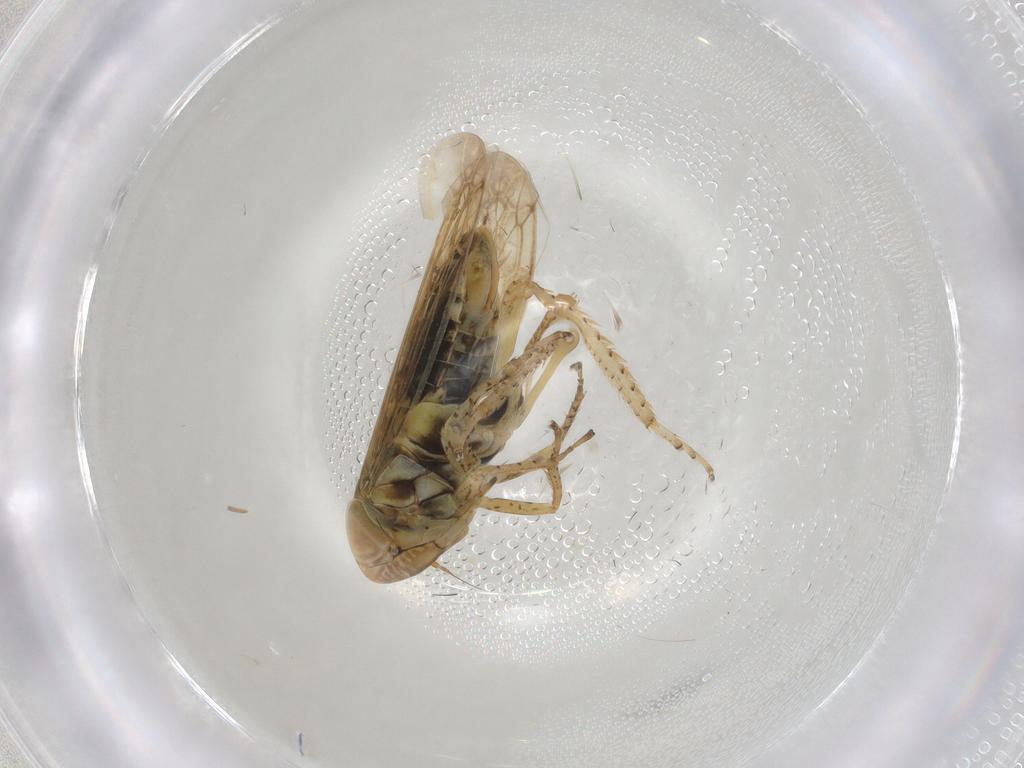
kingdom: Animalia
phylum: Arthropoda
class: Insecta
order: Hemiptera
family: Cicadellidae
